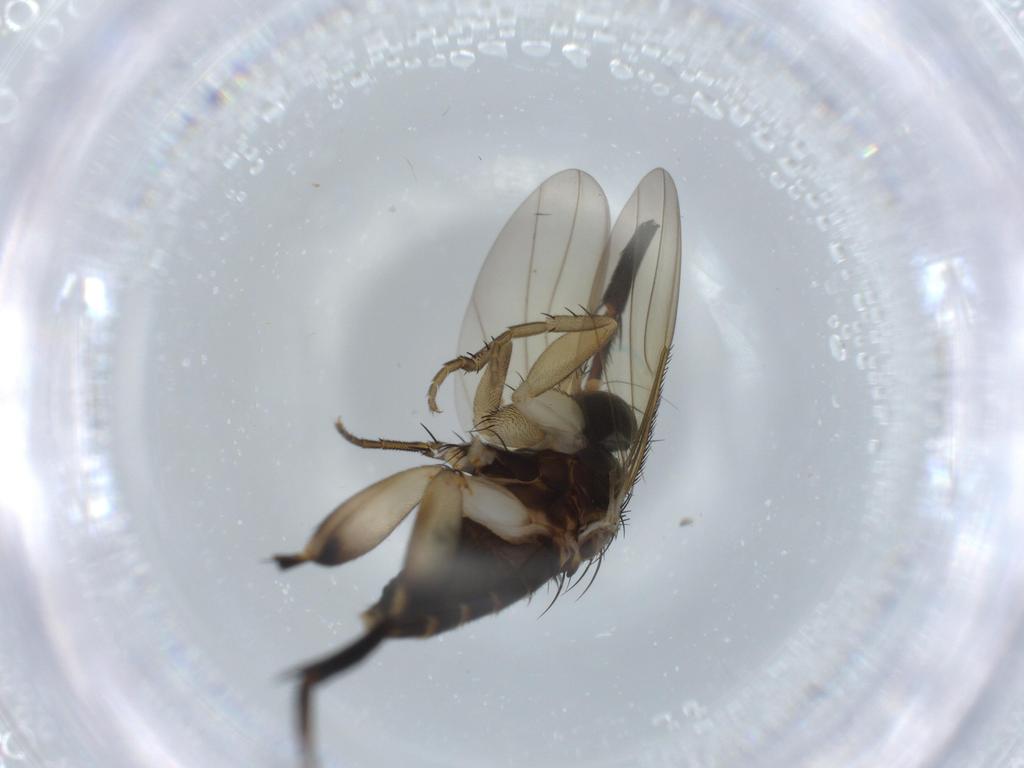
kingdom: Animalia
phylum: Arthropoda
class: Insecta
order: Diptera
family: Phoridae
